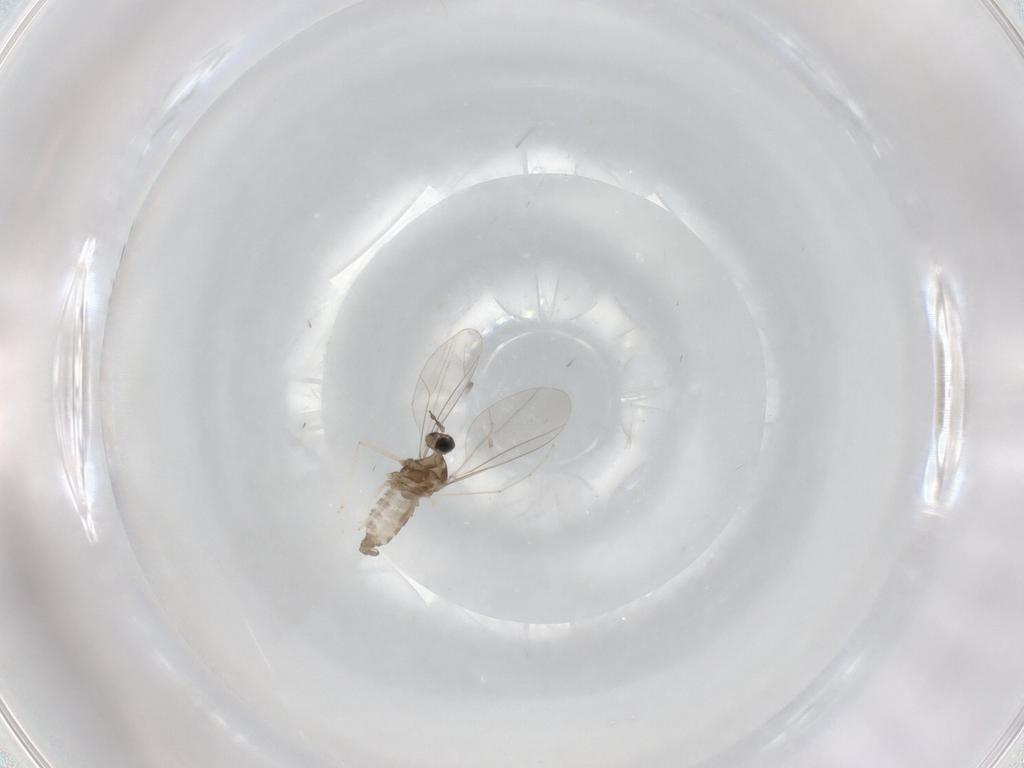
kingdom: Animalia
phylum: Arthropoda
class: Insecta
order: Diptera
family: Cecidomyiidae
